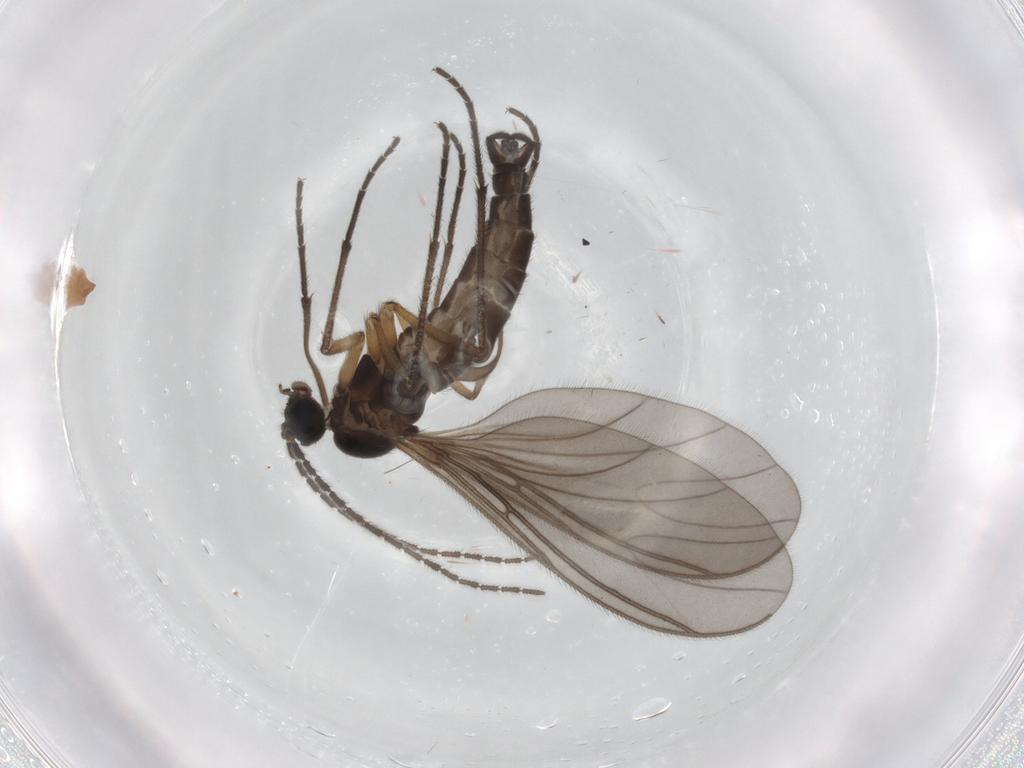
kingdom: Animalia
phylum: Arthropoda
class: Insecta
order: Diptera
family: Sciaridae
